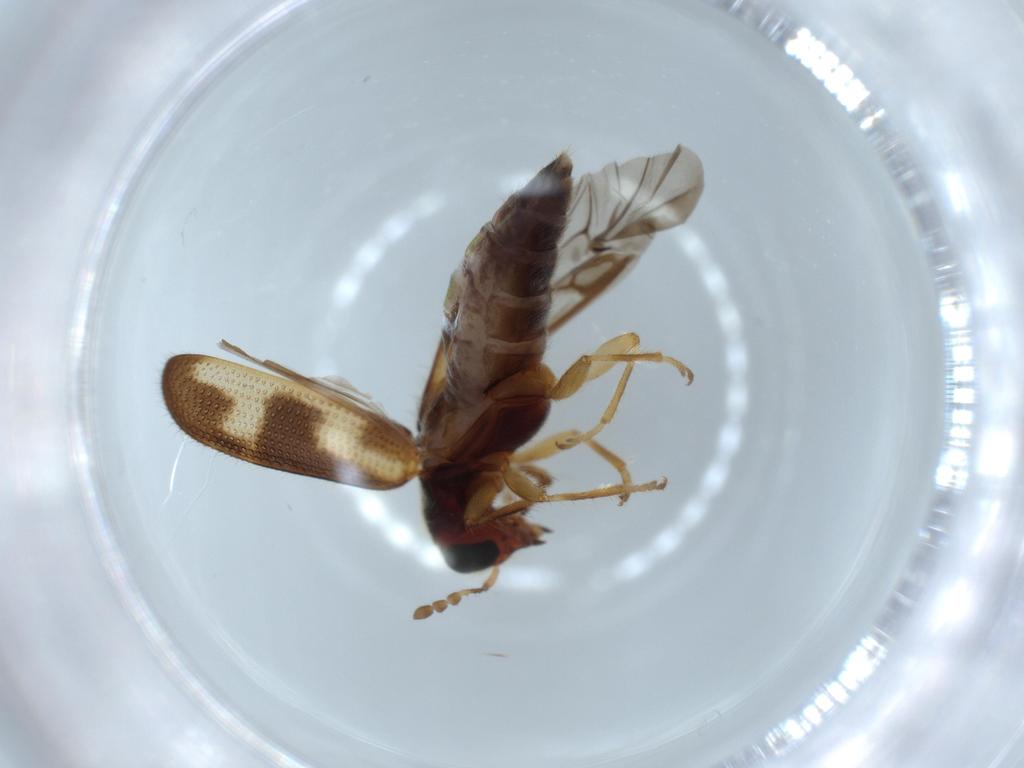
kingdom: Animalia
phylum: Arthropoda
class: Insecta
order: Coleoptera
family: Cleridae
